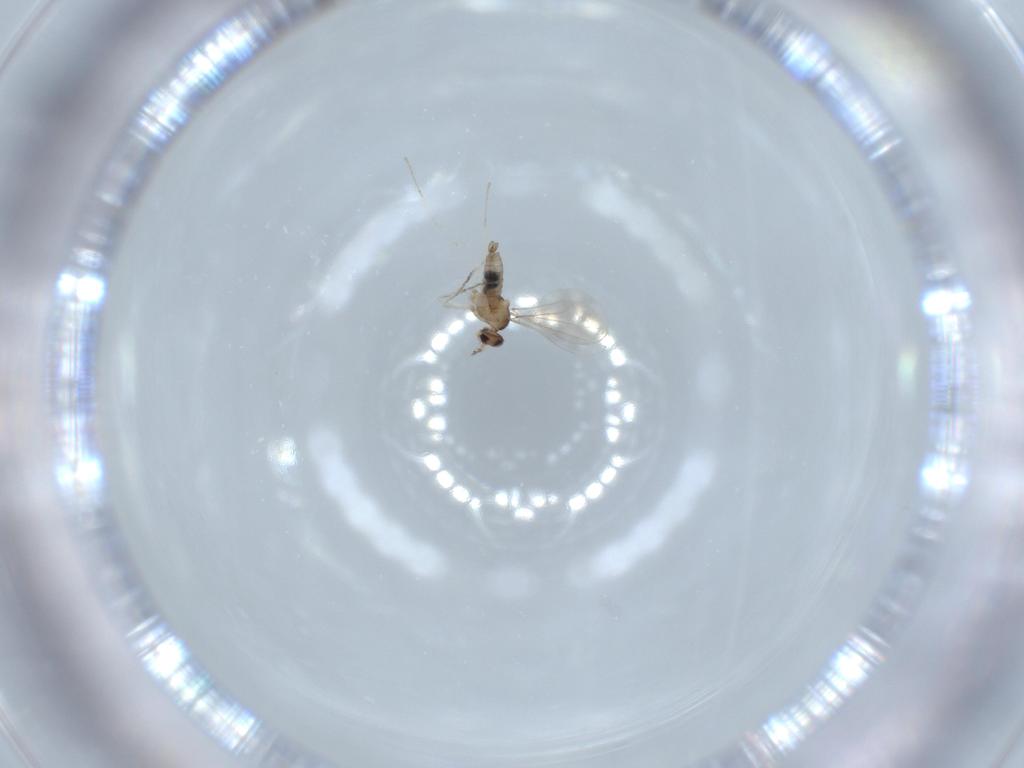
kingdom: Animalia
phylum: Arthropoda
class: Insecta
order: Diptera
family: Cecidomyiidae
